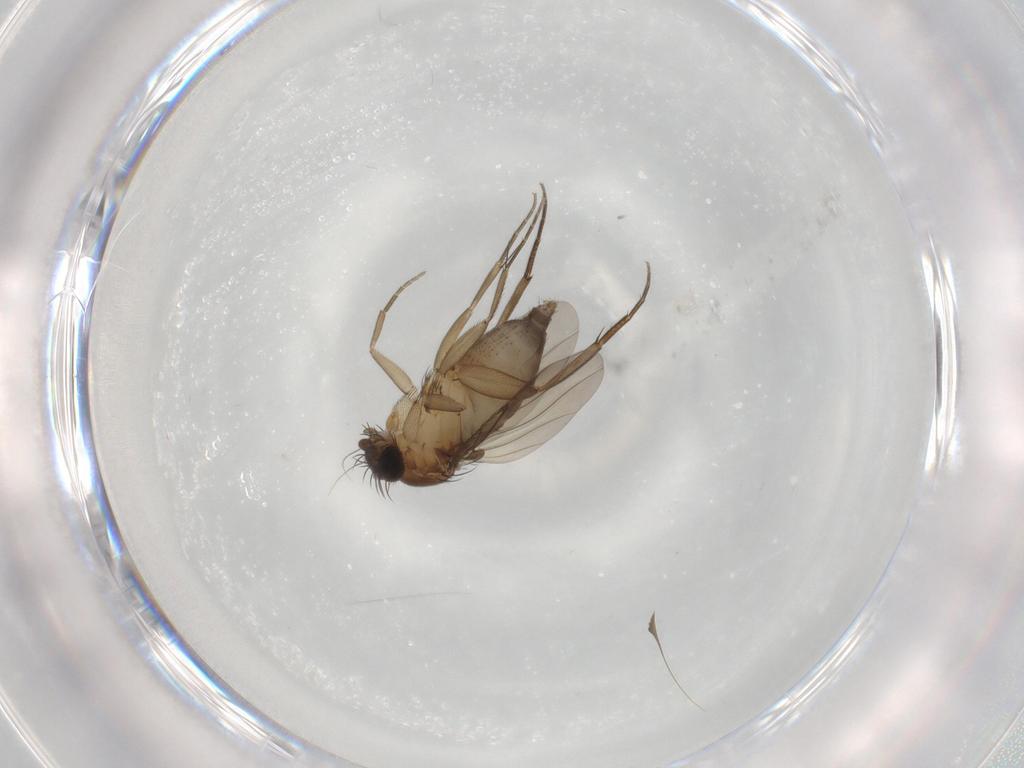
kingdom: Animalia
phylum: Arthropoda
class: Insecta
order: Diptera
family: Phoridae
